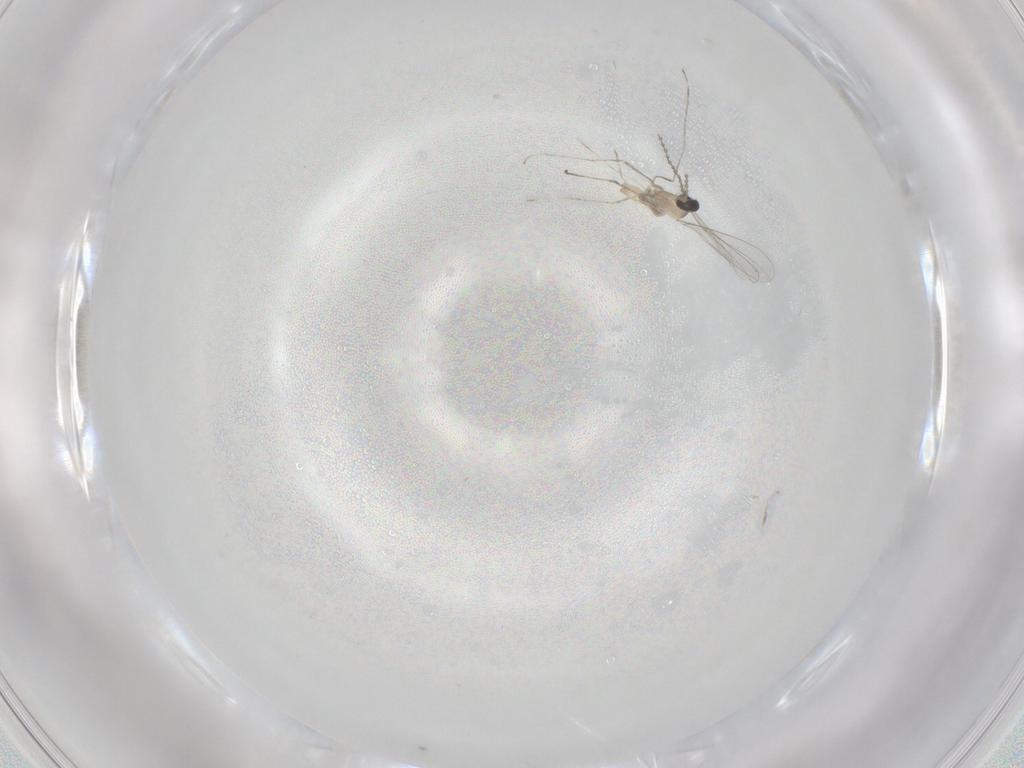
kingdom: Animalia
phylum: Arthropoda
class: Insecta
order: Diptera
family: Cecidomyiidae
